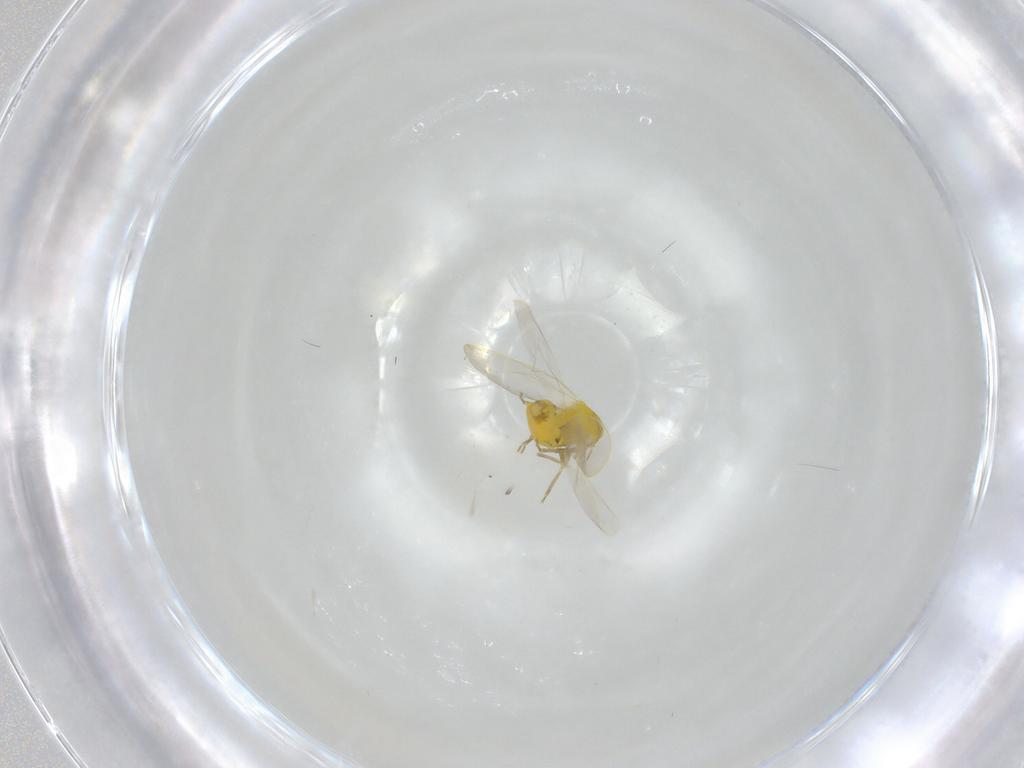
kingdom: Animalia
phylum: Arthropoda
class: Insecta
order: Hemiptera
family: Aleyrodidae
